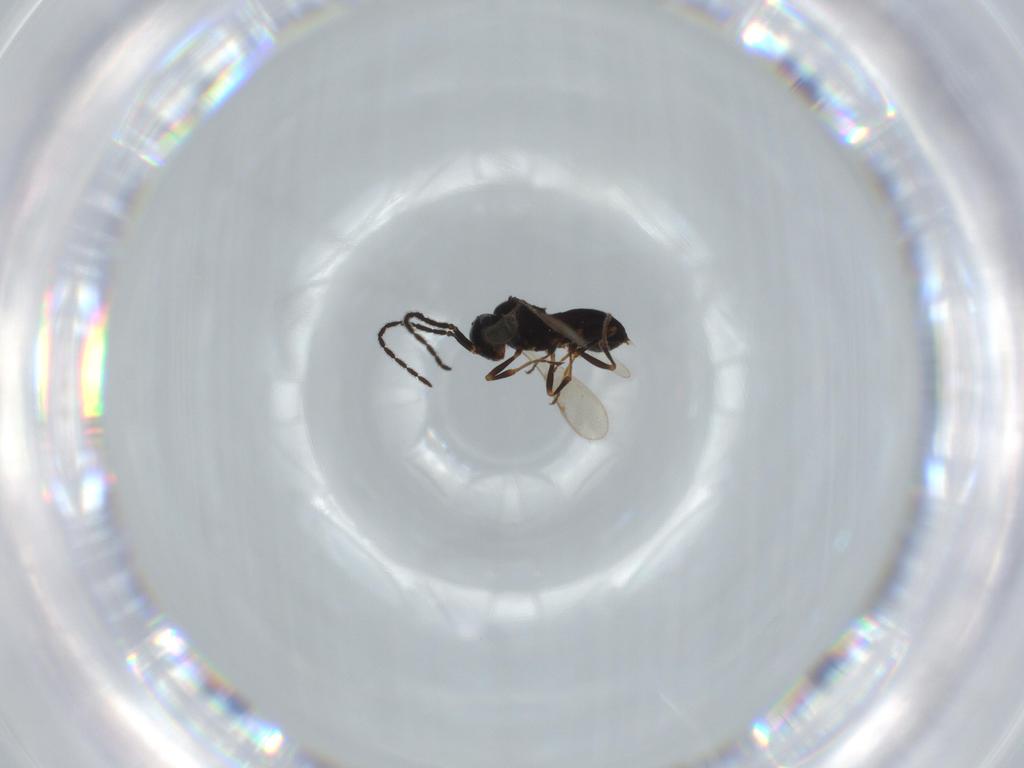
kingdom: Animalia
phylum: Arthropoda
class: Insecta
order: Hymenoptera
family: Scelionidae
